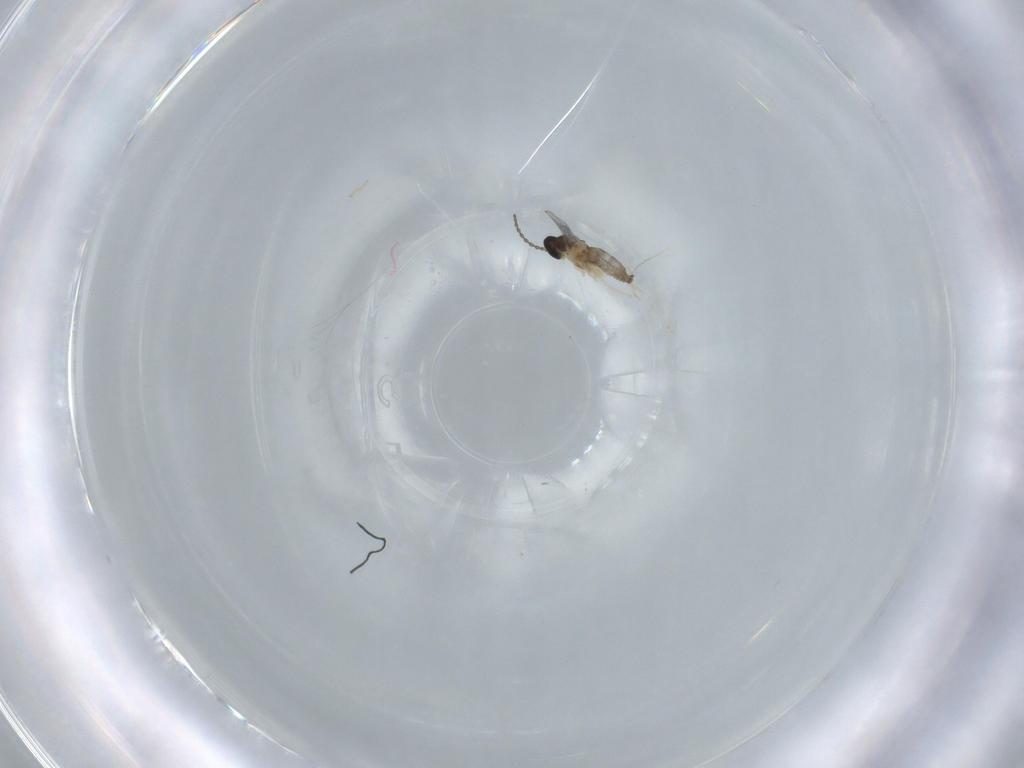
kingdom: Animalia
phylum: Arthropoda
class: Insecta
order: Diptera
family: Cecidomyiidae
